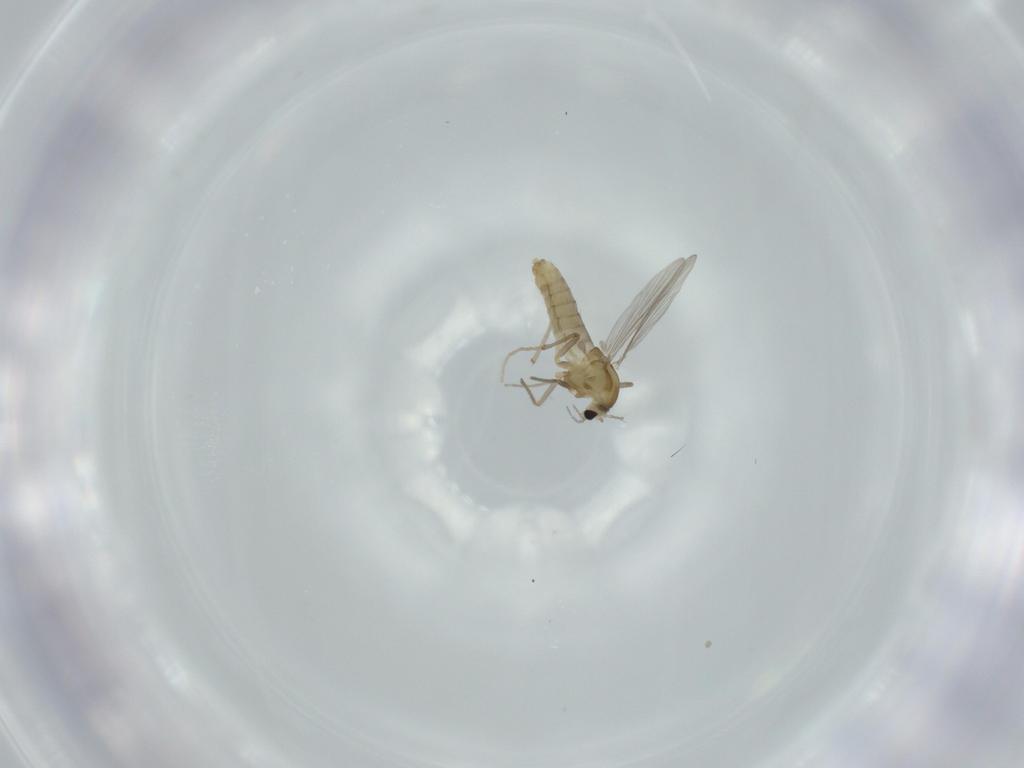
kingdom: Animalia
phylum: Arthropoda
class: Insecta
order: Diptera
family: Chironomidae
